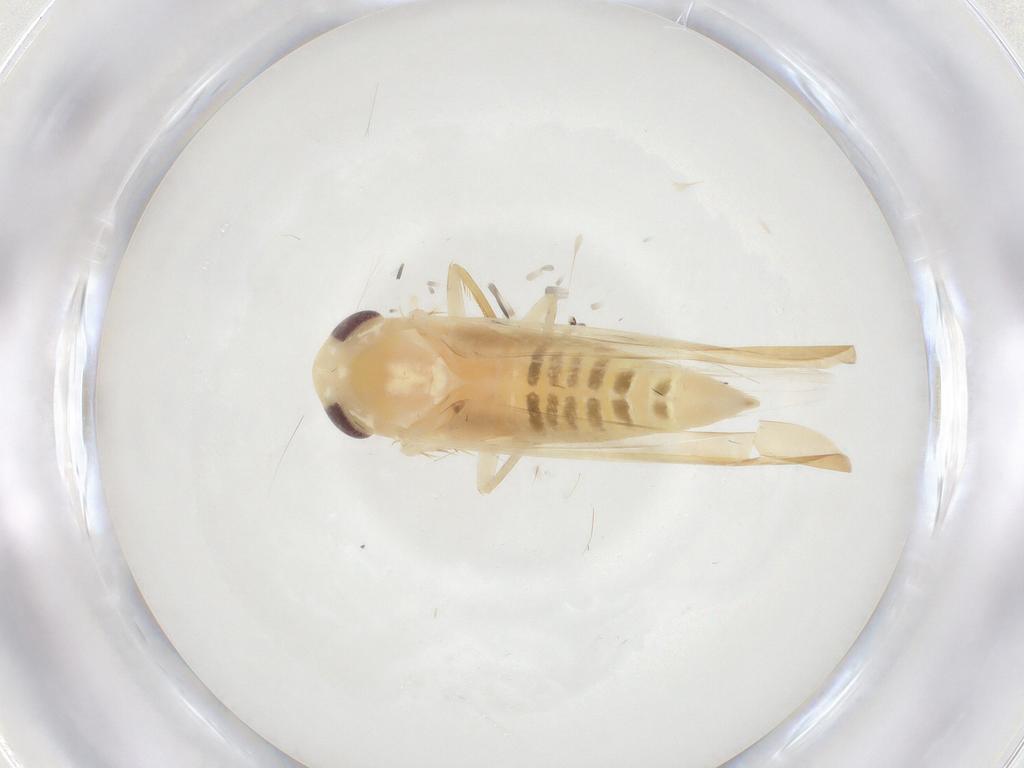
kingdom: Animalia
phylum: Arthropoda
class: Insecta
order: Hemiptera
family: Cicadellidae
